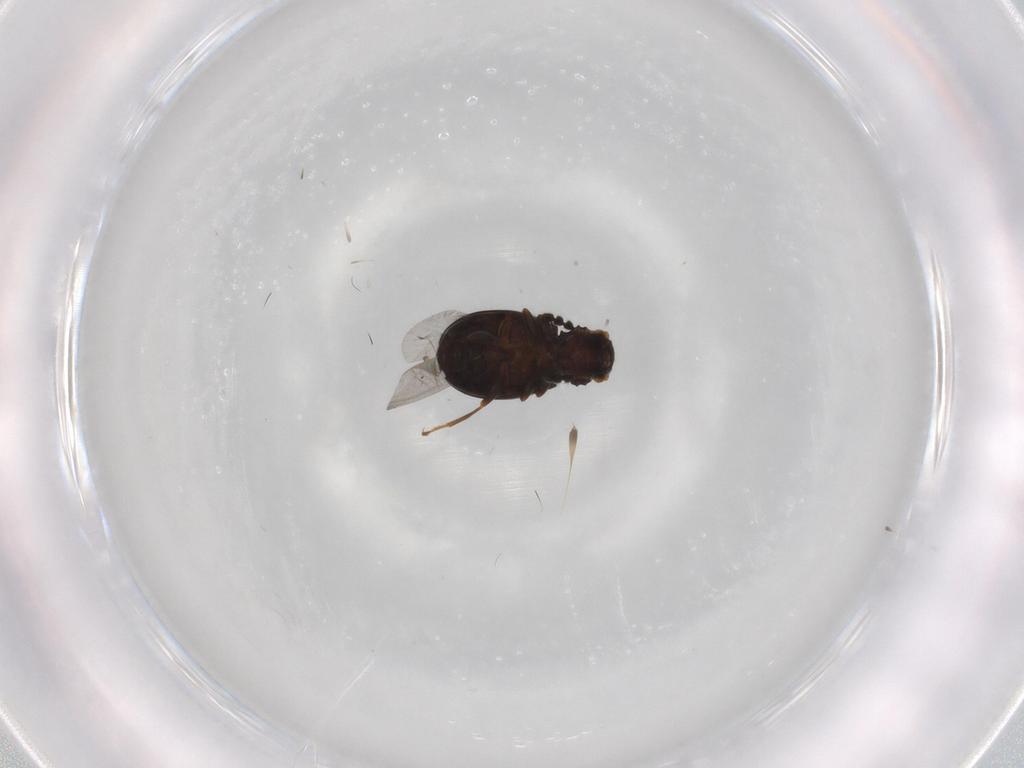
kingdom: Animalia
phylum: Arthropoda
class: Insecta
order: Coleoptera
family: Salpingidae
